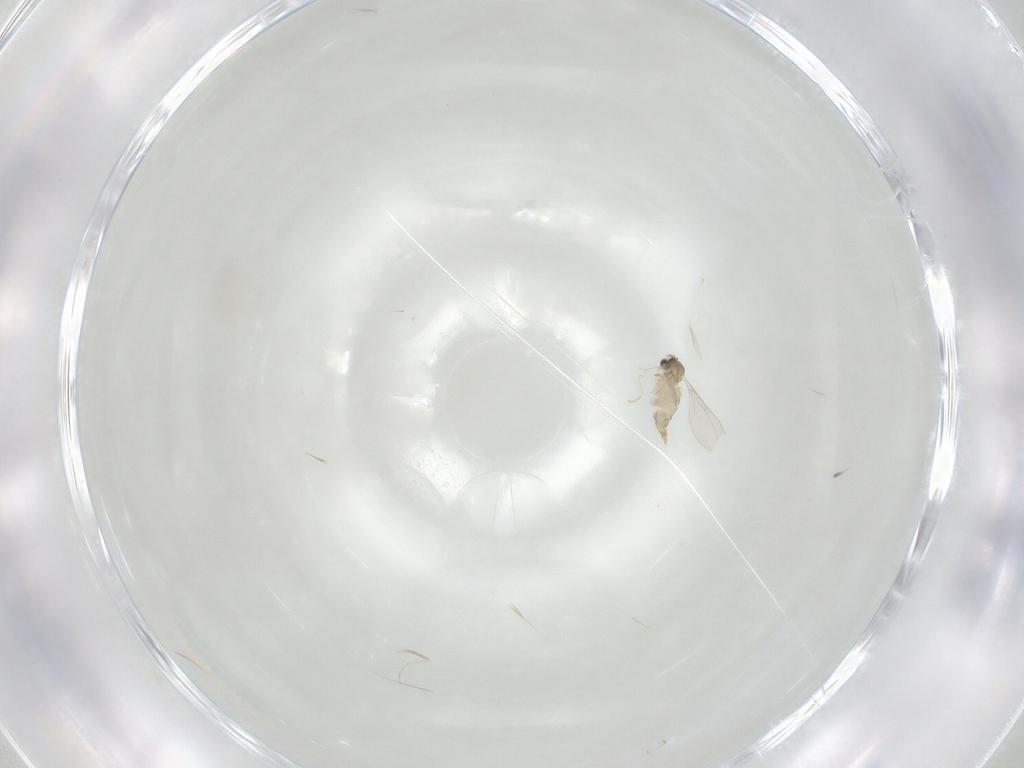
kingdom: Animalia
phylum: Arthropoda
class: Insecta
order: Diptera
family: Cecidomyiidae
